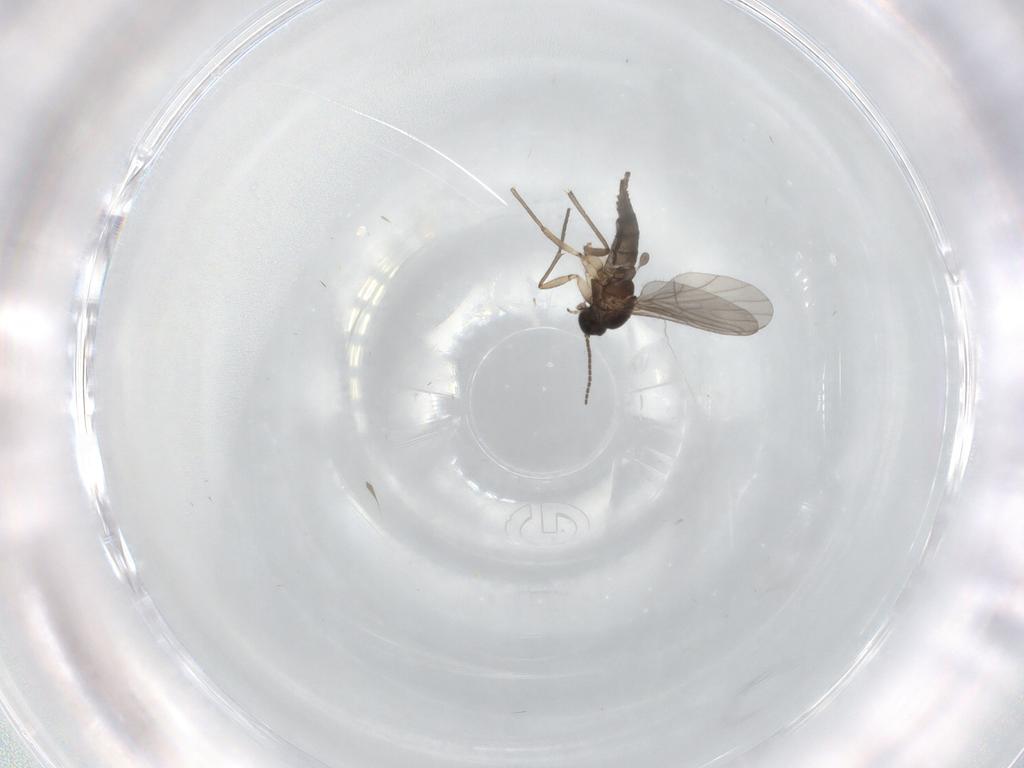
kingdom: Animalia
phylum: Arthropoda
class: Insecta
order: Diptera
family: Sciaridae
